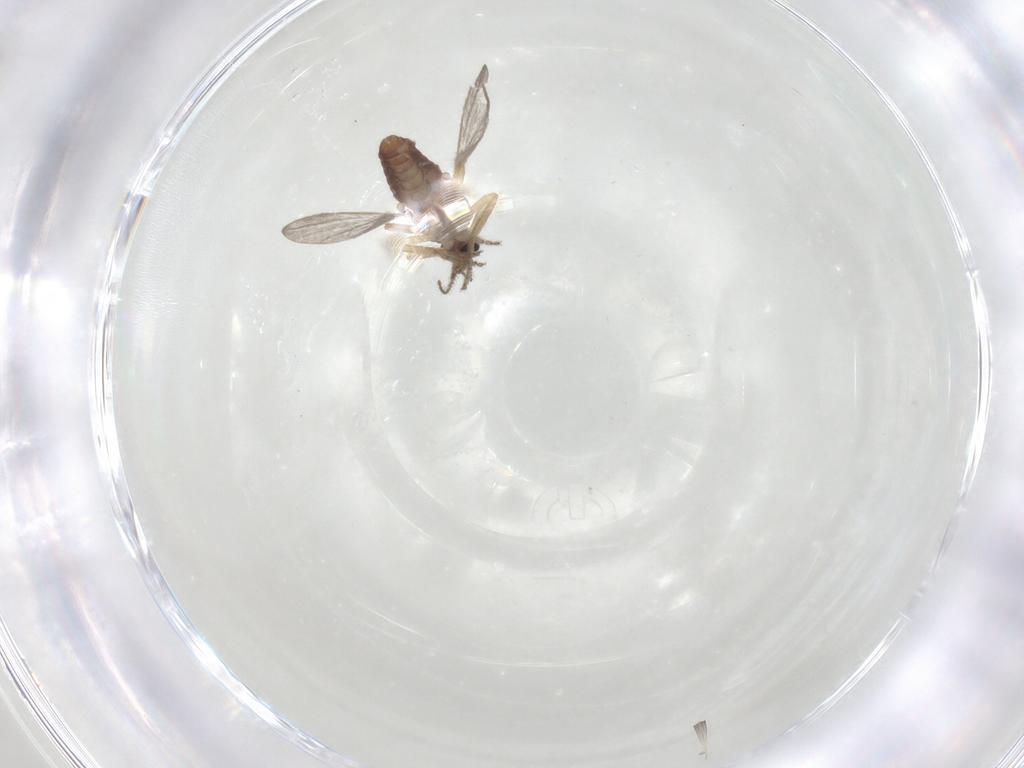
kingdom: Animalia
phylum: Arthropoda
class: Insecta
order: Diptera
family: Ceratopogonidae
